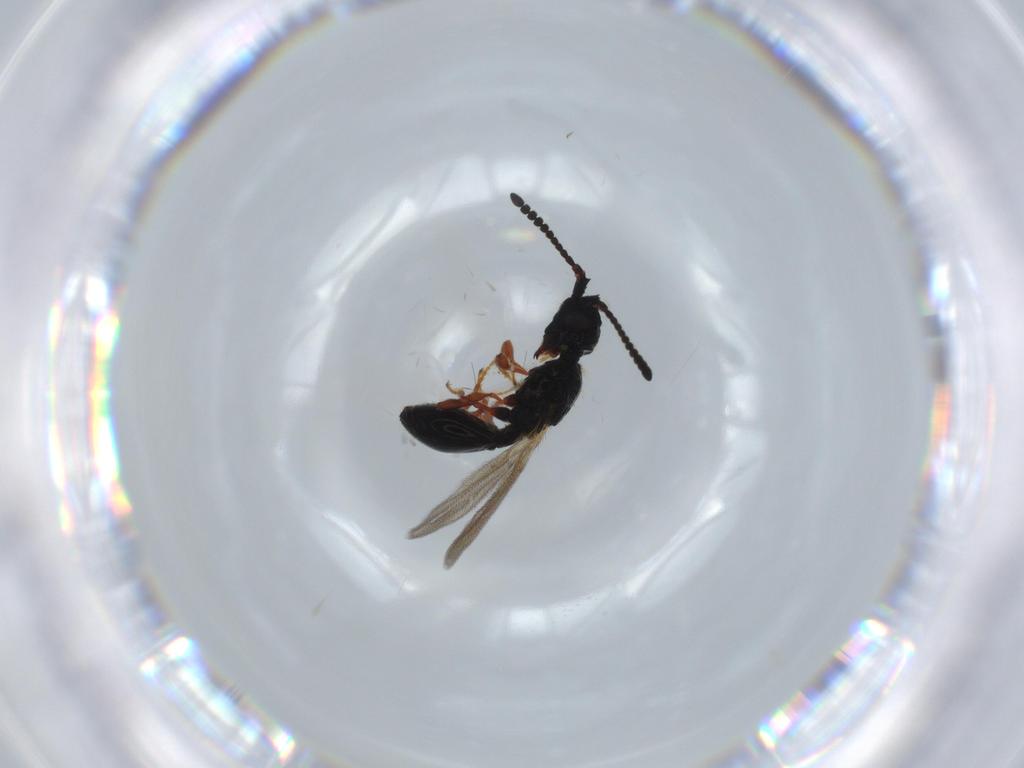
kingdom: Animalia
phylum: Arthropoda
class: Insecta
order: Hymenoptera
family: Diapriidae
